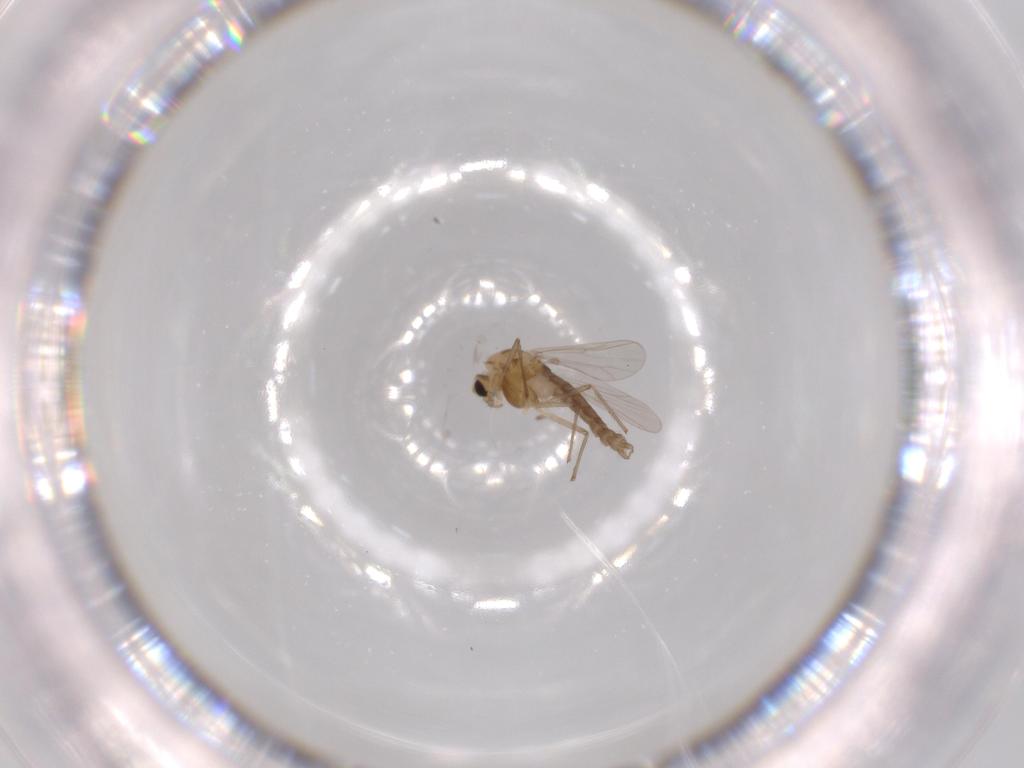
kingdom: Animalia
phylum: Arthropoda
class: Insecta
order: Diptera
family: Chironomidae
